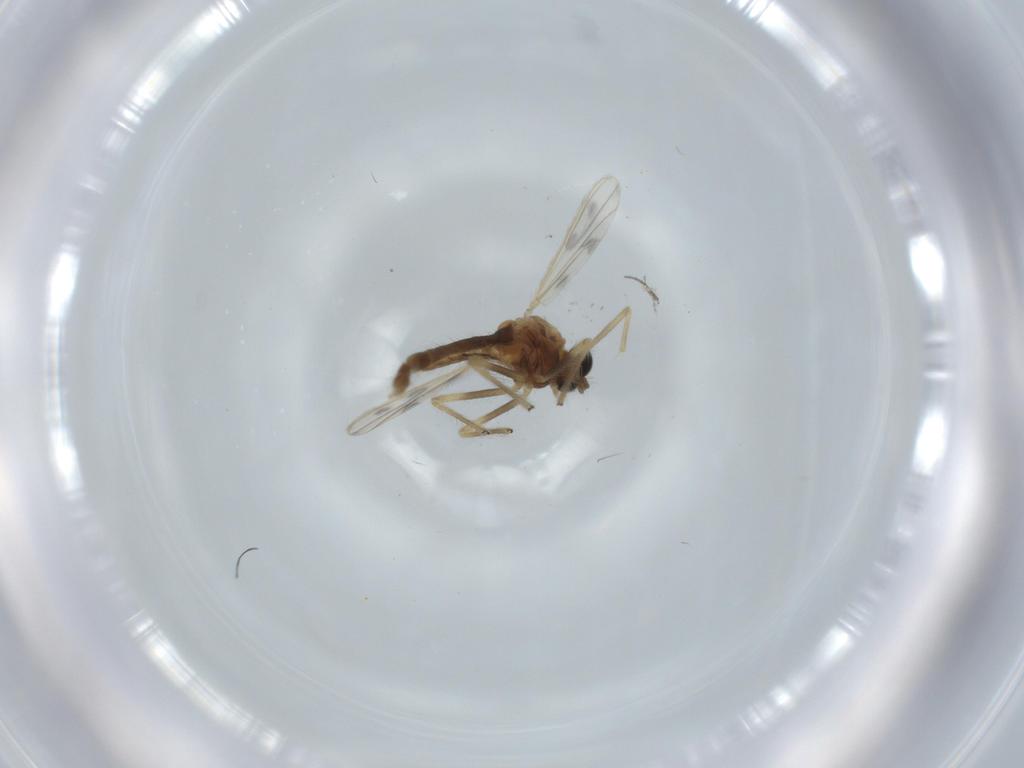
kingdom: Animalia
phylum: Arthropoda
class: Insecta
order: Diptera
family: Chironomidae
